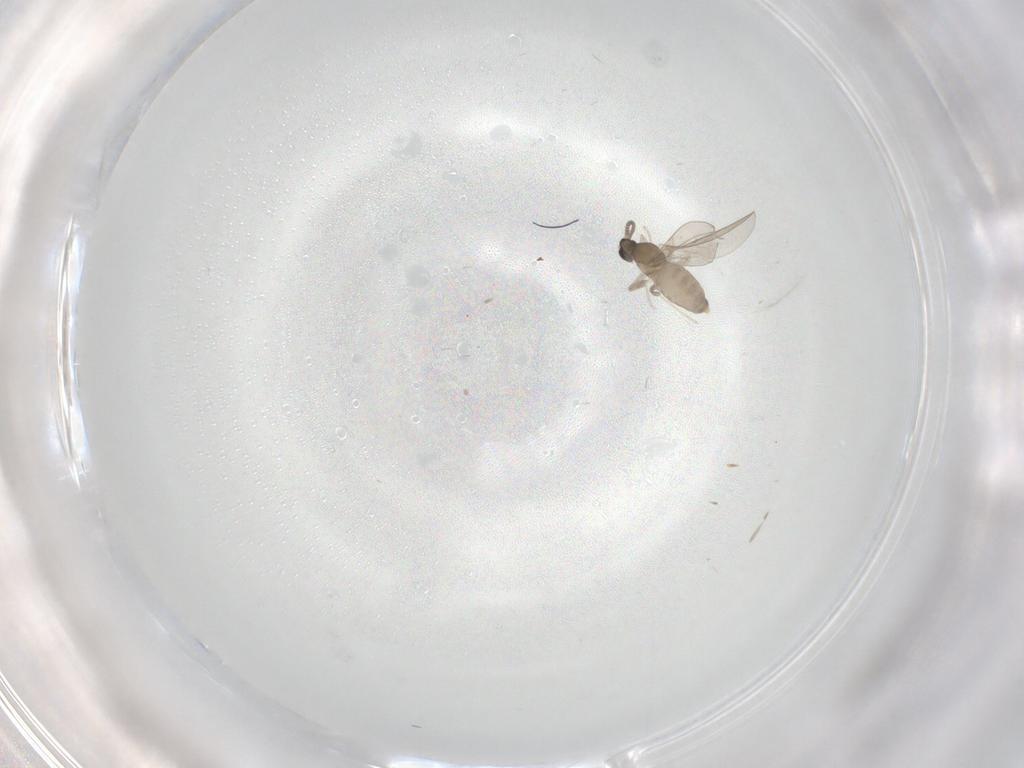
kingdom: Animalia
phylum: Arthropoda
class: Insecta
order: Diptera
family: Cecidomyiidae
